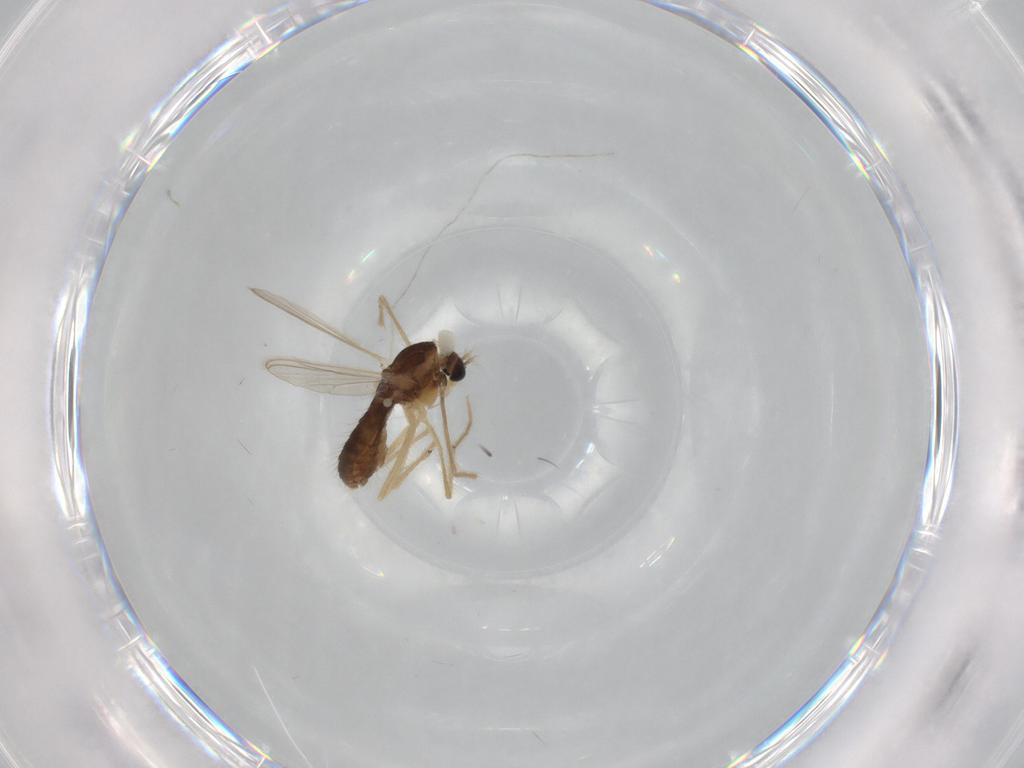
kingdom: Animalia
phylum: Arthropoda
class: Insecta
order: Diptera
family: Chironomidae
